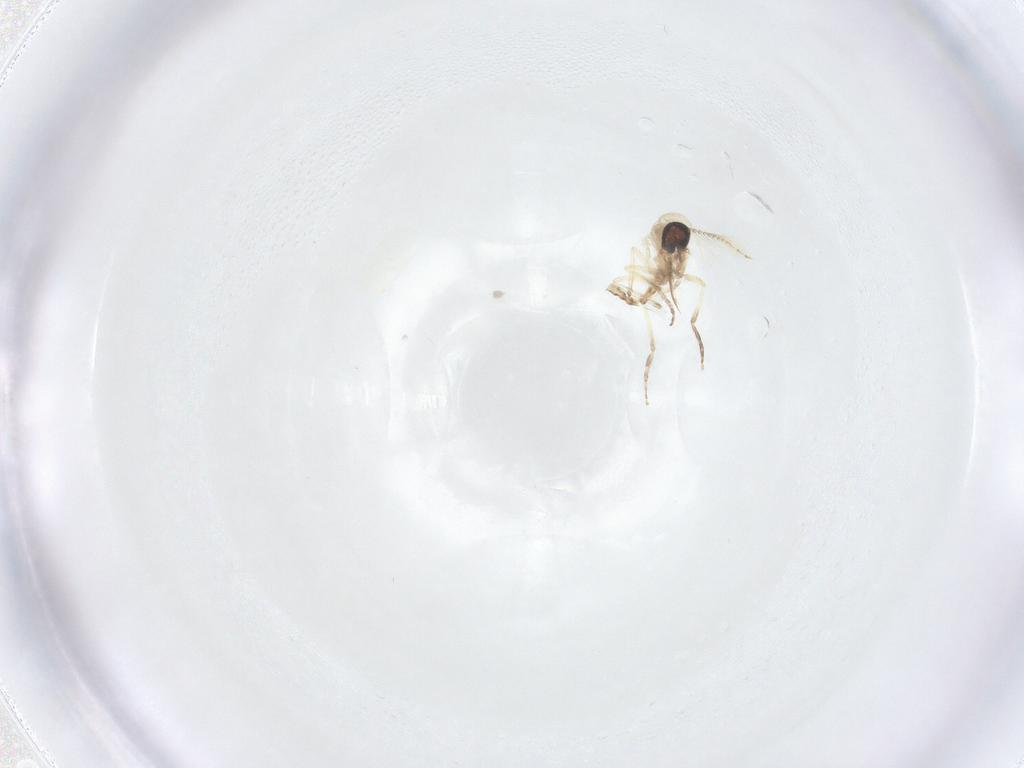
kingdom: Animalia
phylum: Arthropoda
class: Insecta
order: Diptera
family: Ceratopogonidae
